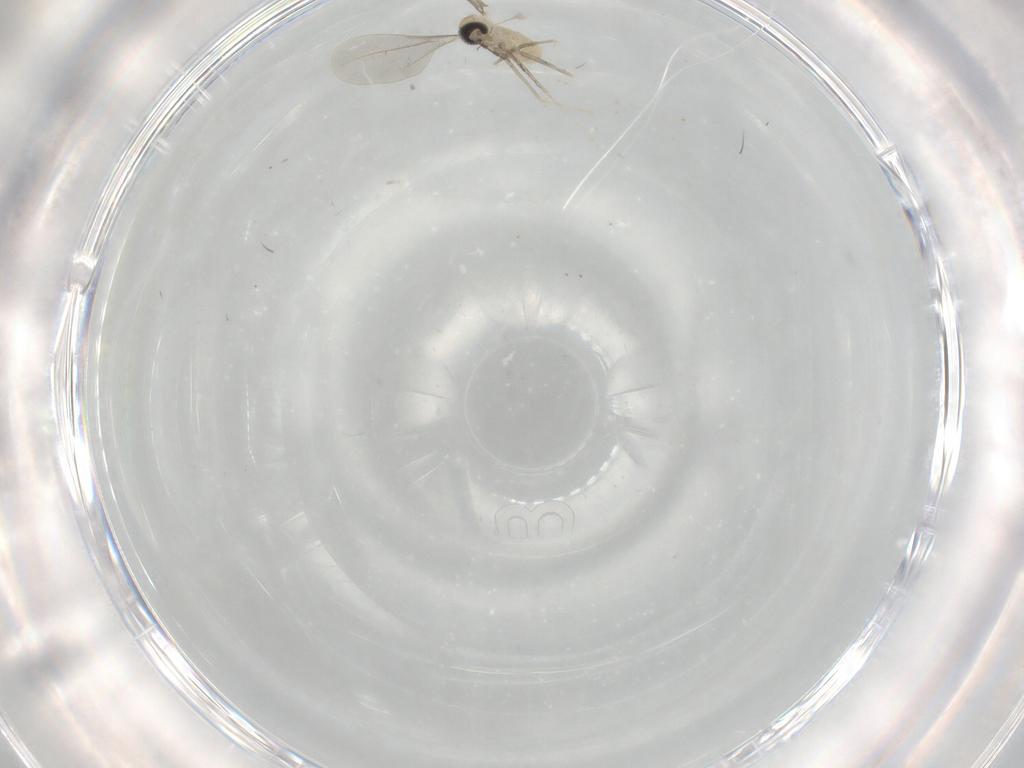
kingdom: Animalia
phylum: Arthropoda
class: Insecta
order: Diptera
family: Cecidomyiidae
